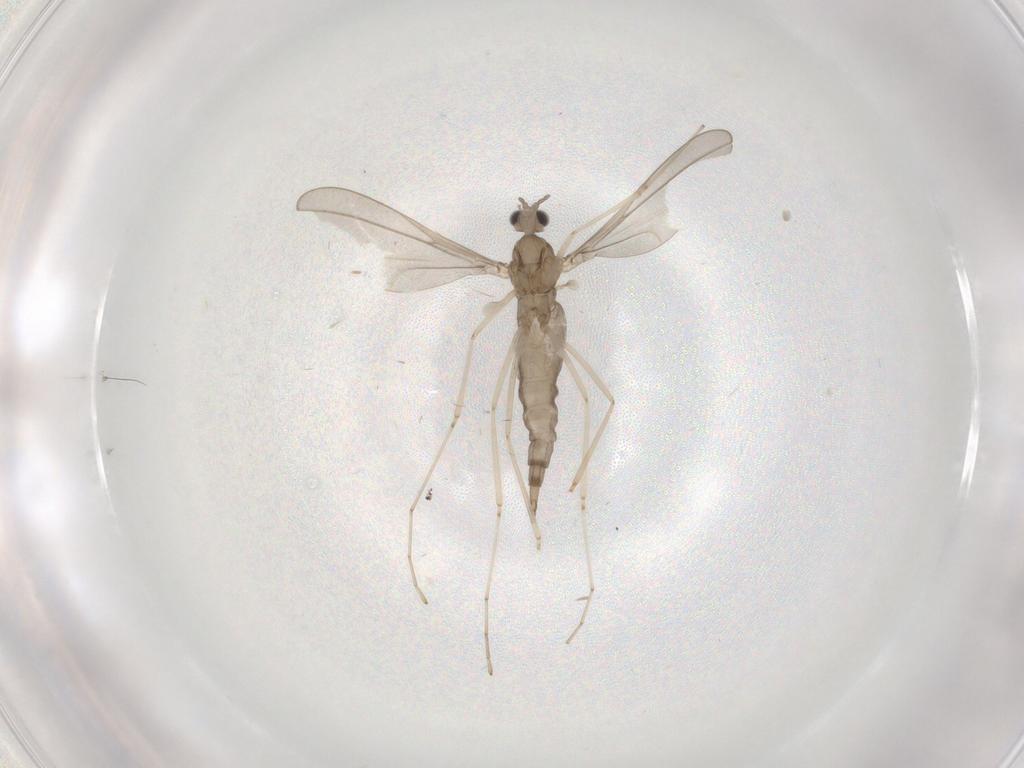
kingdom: Animalia
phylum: Arthropoda
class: Insecta
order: Diptera
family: Cecidomyiidae
